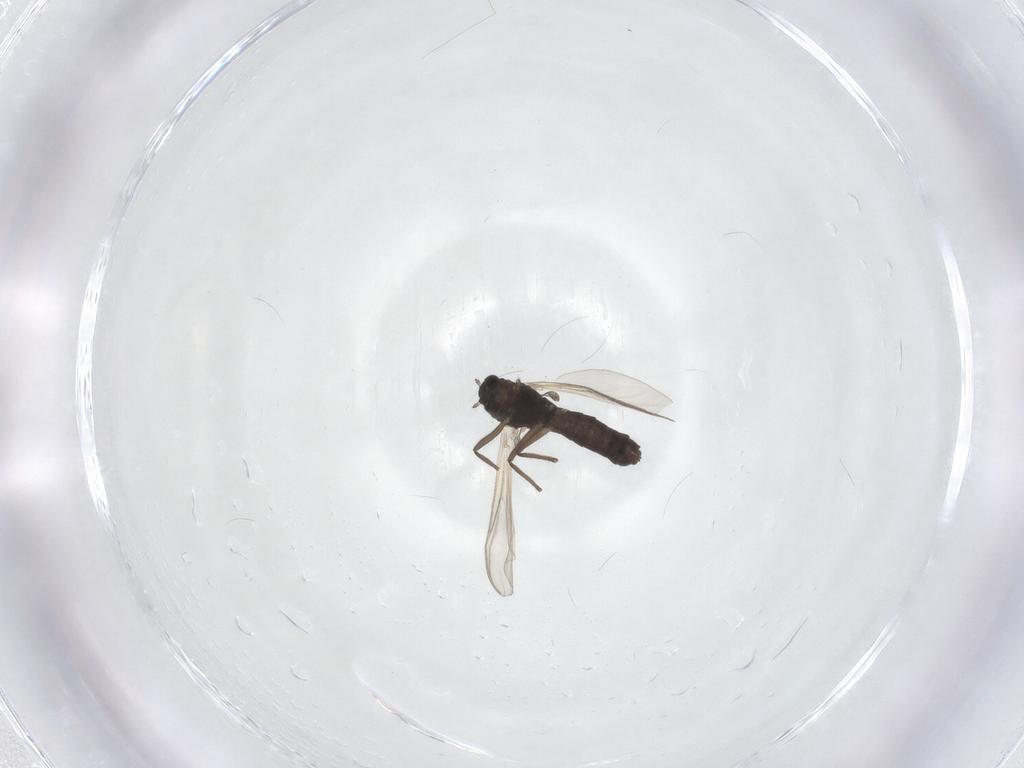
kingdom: Animalia
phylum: Arthropoda
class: Insecta
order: Diptera
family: Chironomidae
